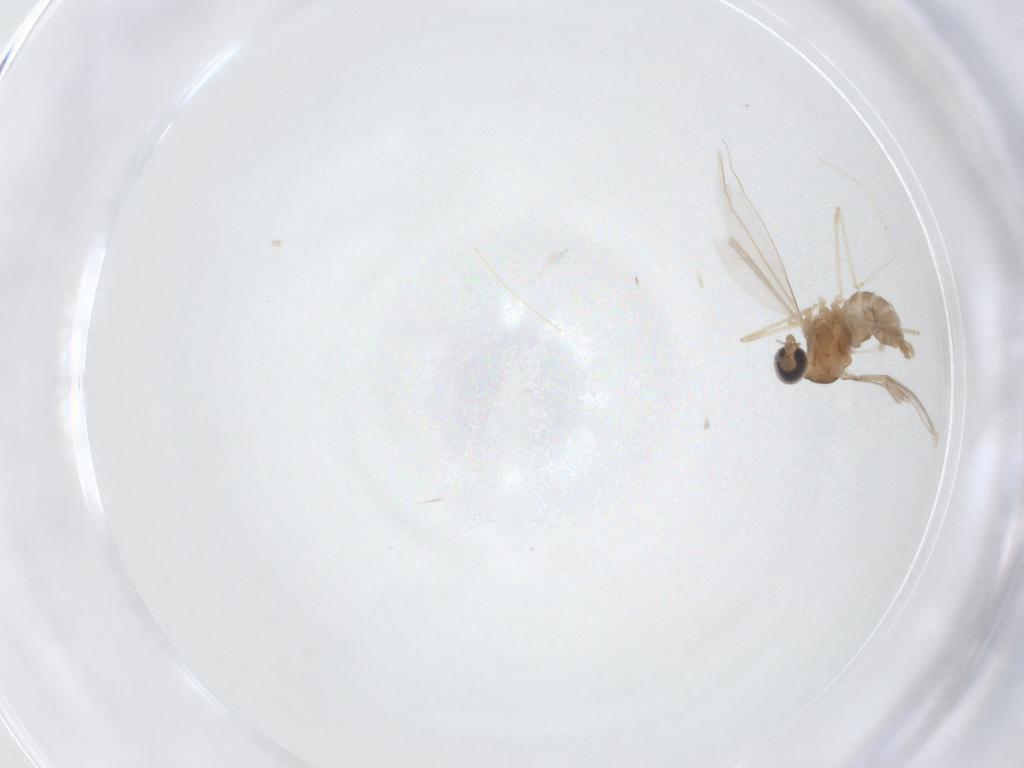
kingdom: Animalia
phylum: Arthropoda
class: Insecta
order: Diptera
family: Cecidomyiidae
